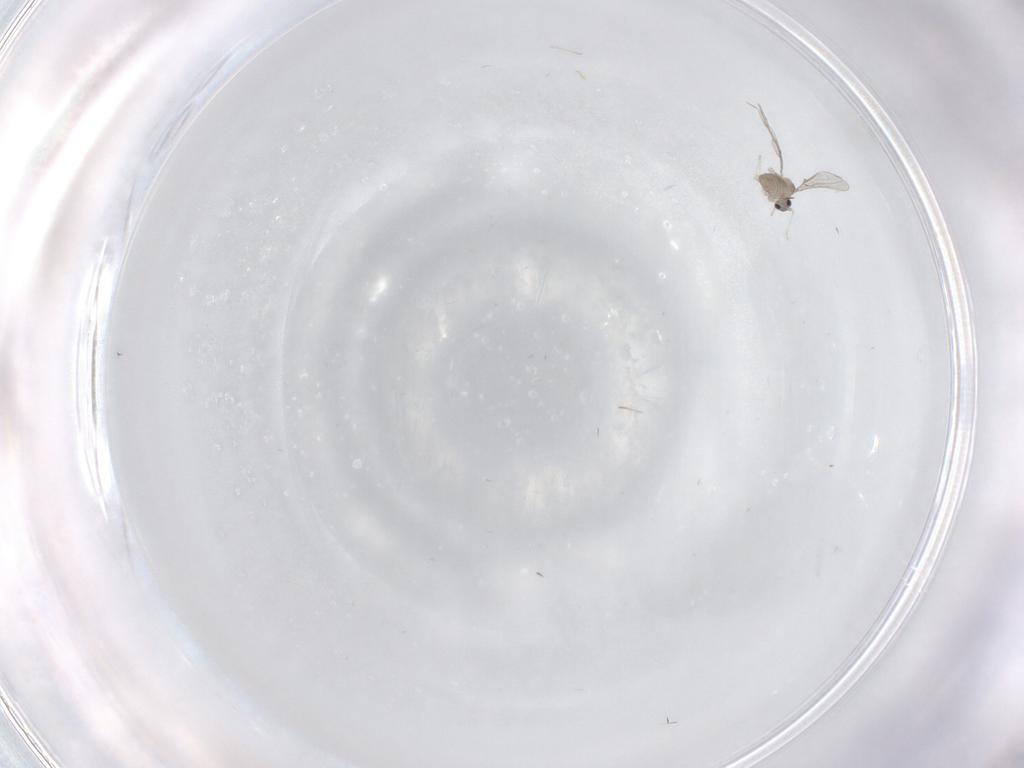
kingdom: Animalia
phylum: Arthropoda
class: Insecta
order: Diptera
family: Cecidomyiidae
